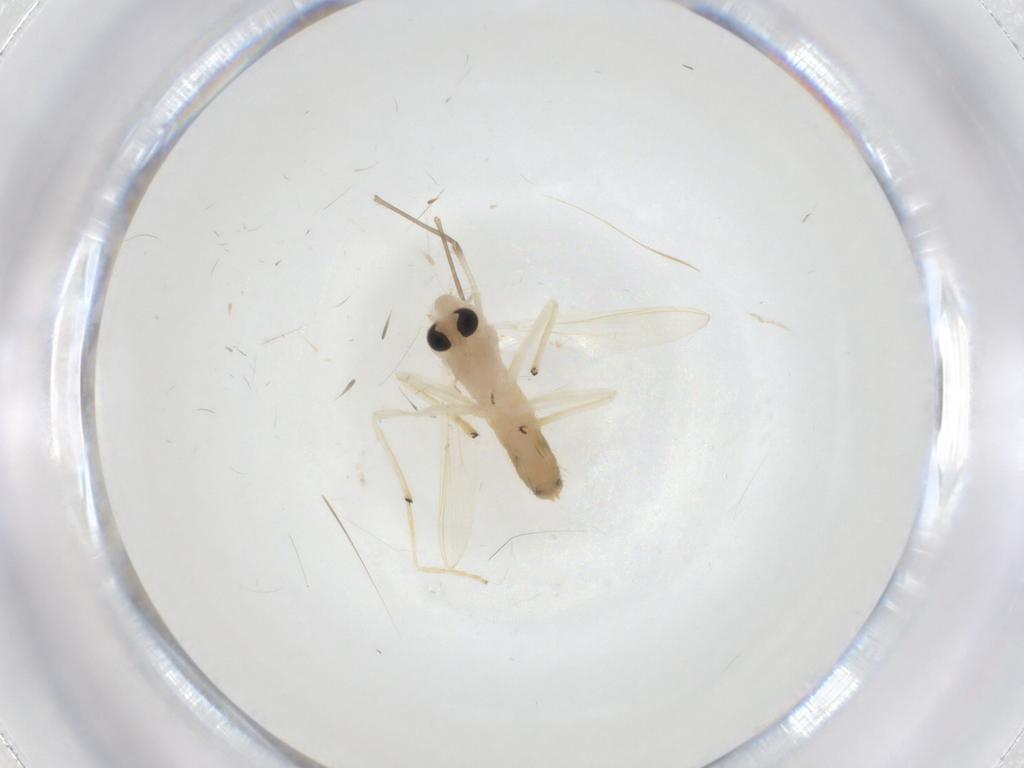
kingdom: Animalia
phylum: Arthropoda
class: Insecta
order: Diptera
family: Chironomidae
